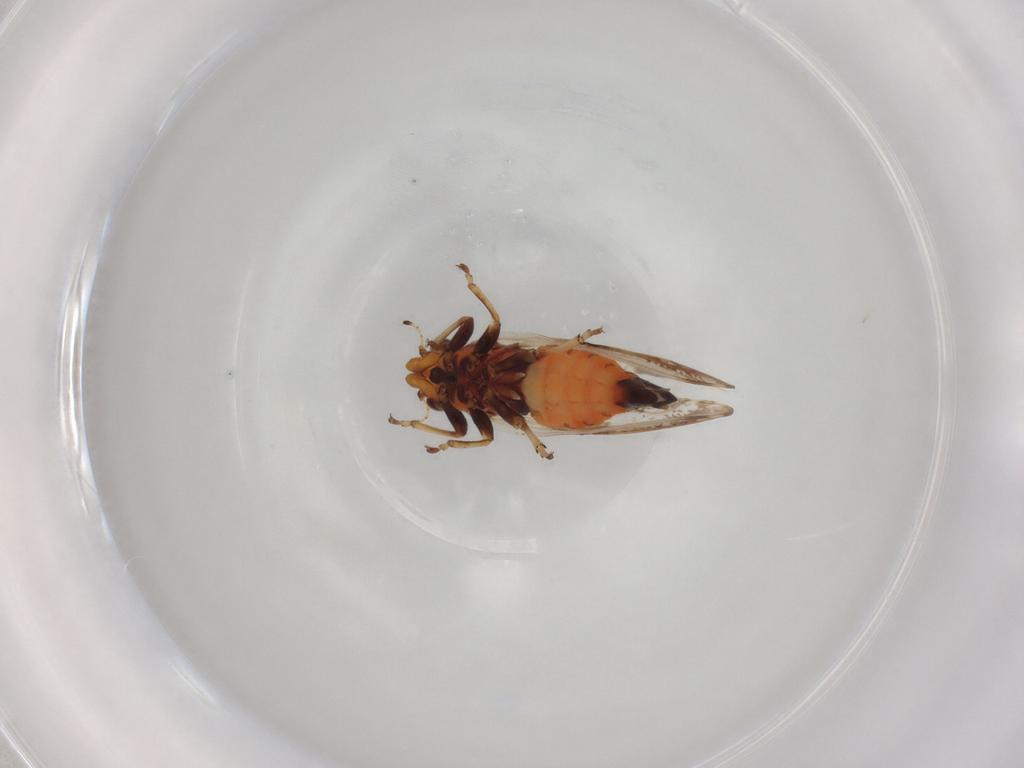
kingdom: Animalia
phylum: Arthropoda
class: Insecta
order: Hemiptera
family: Psylloidea_incertae_sedis
